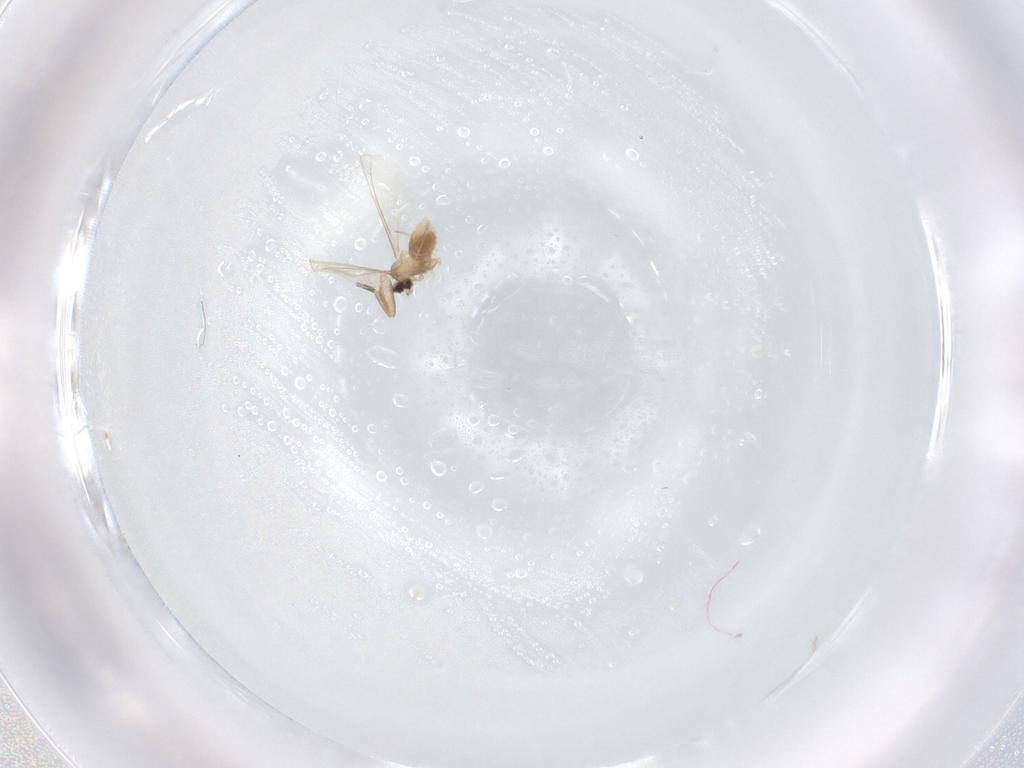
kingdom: Animalia
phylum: Arthropoda
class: Insecta
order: Diptera
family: Cecidomyiidae
